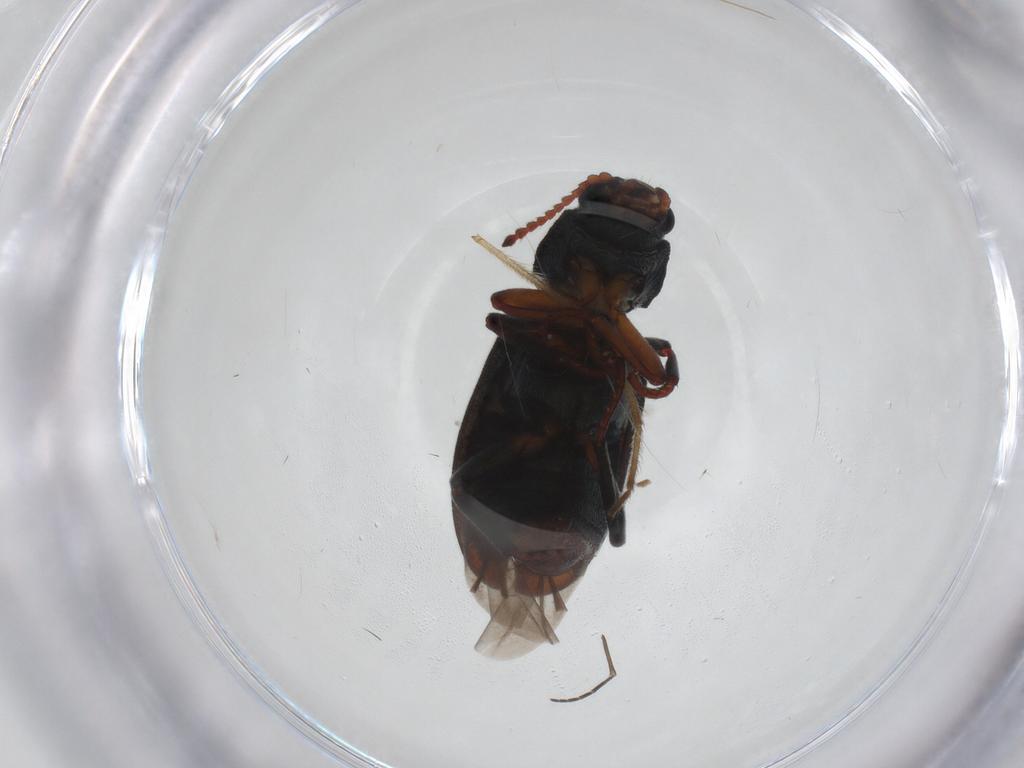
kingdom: Animalia
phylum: Arthropoda
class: Insecta
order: Coleoptera
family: Melyridae
